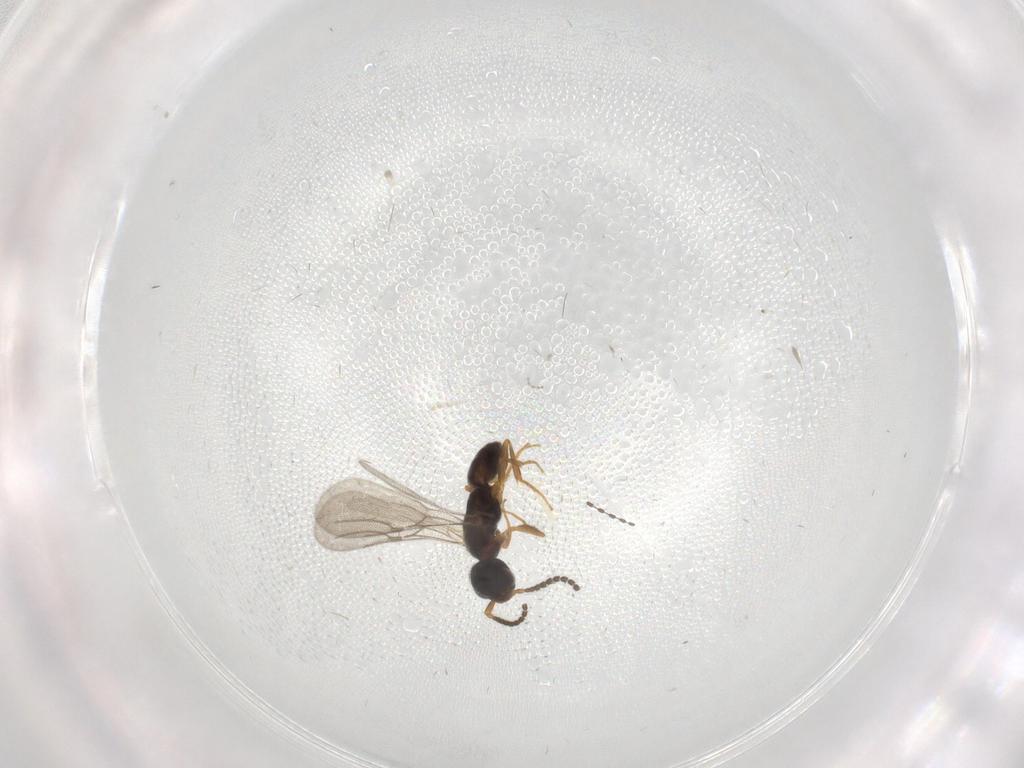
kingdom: Animalia
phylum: Arthropoda
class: Insecta
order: Hymenoptera
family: Bethylidae
